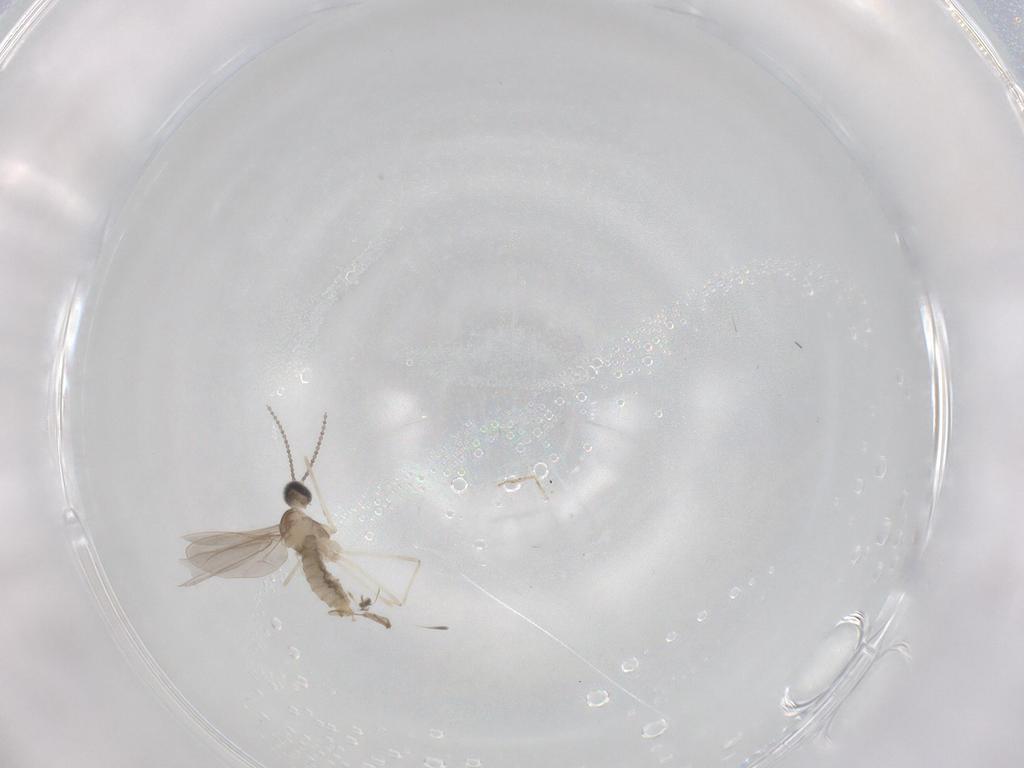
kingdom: Animalia
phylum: Arthropoda
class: Insecta
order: Diptera
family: Cecidomyiidae
